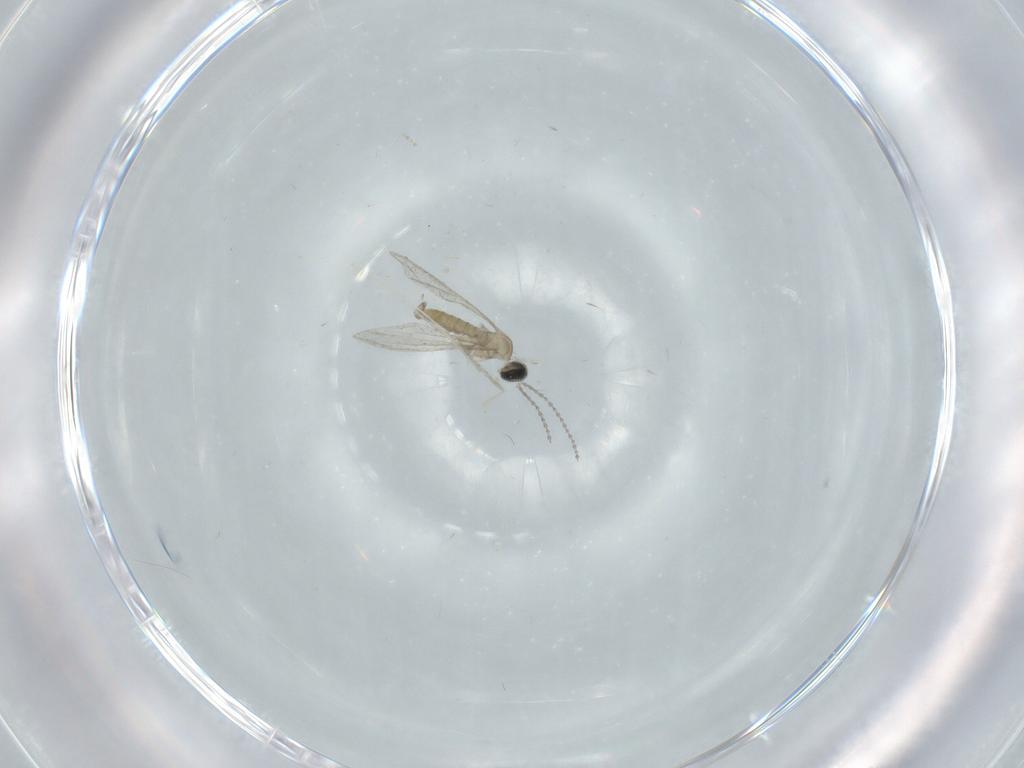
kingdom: Animalia
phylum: Arthropoda
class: Insecta
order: Diptera
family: Cecidomyiidae
